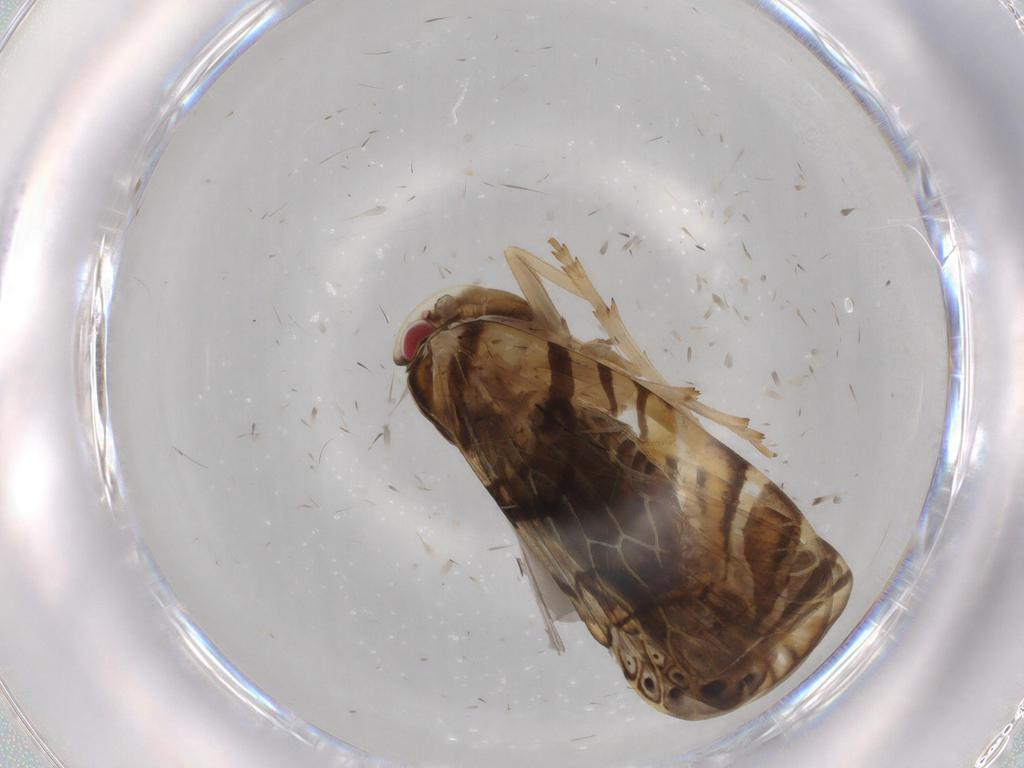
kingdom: Animalia
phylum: Arthropoda
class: Insecta
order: Hemiptera
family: Cixiidae
